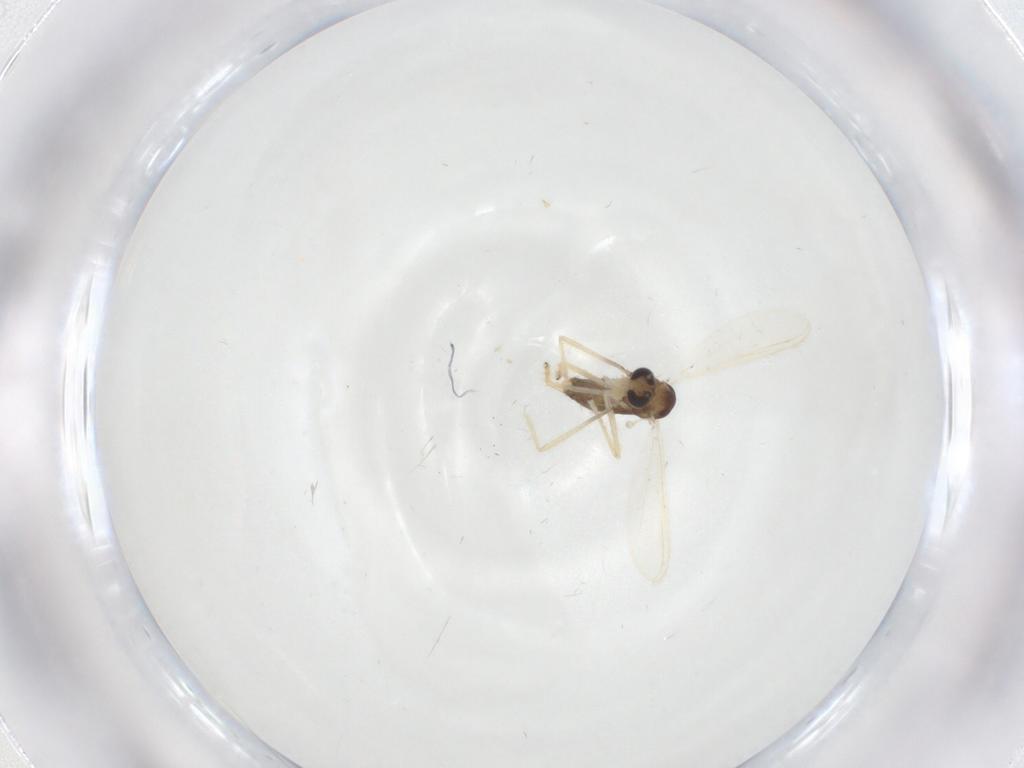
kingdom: Animalia
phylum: Arthropoda
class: Insecta
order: Diptera
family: Chironomidae
